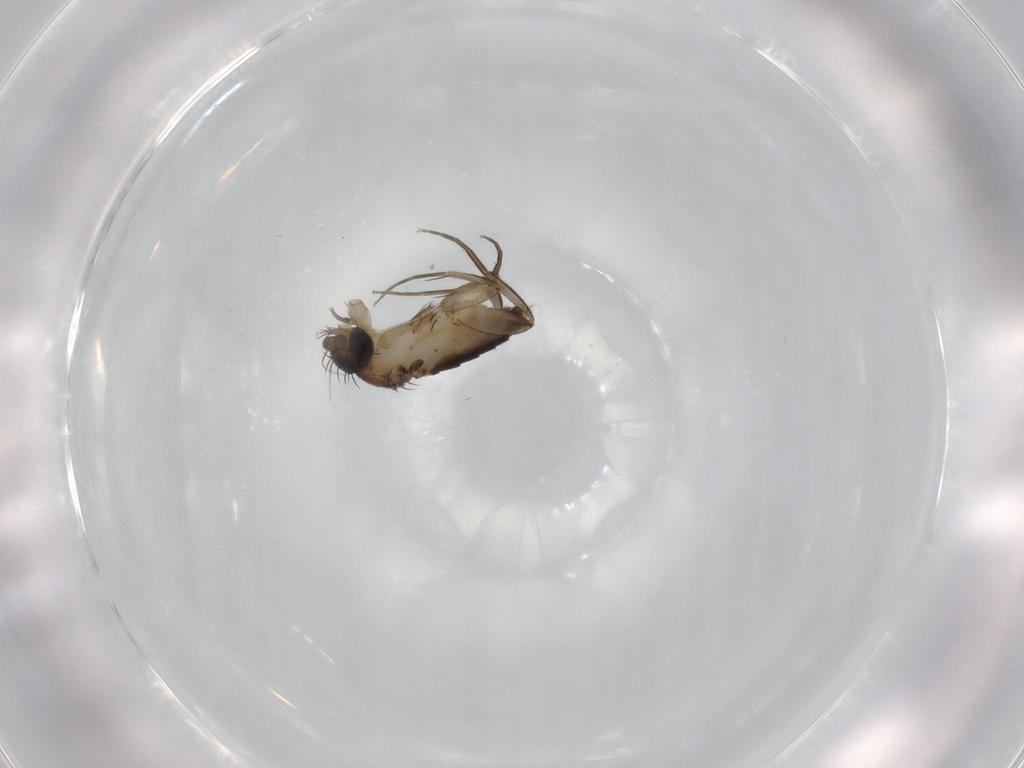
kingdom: Animalia
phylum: Arthropoda
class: Insecta
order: Diptera
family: Phoridae
